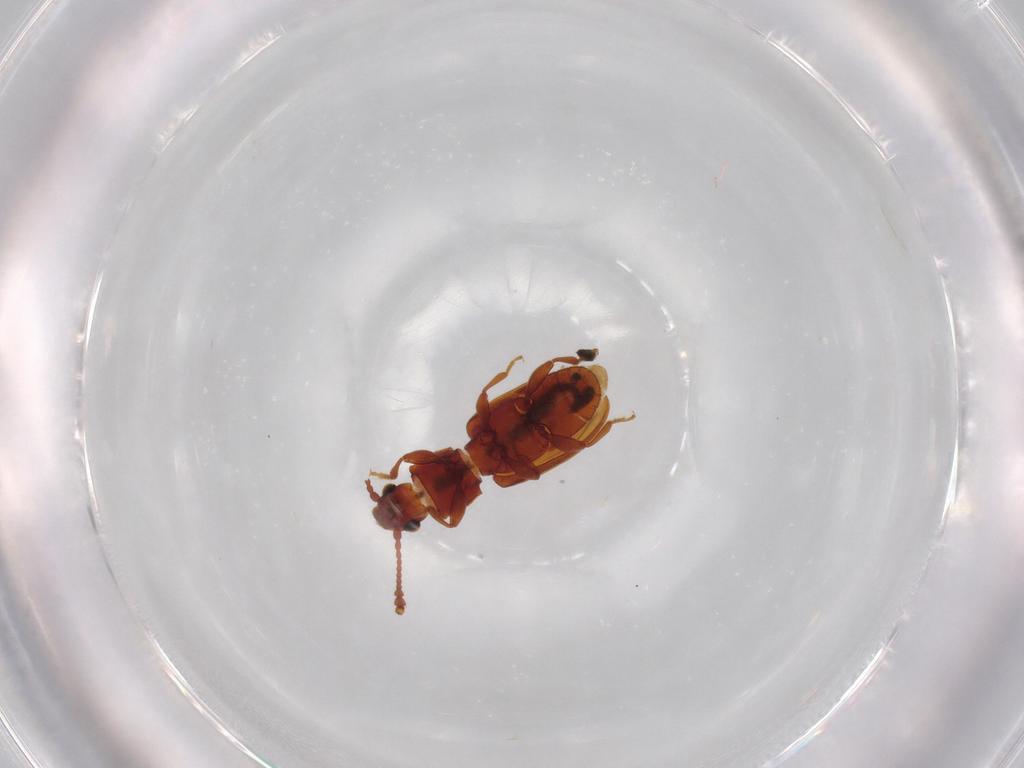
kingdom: Animalia
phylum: Arthropoda
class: Insecta
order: Coleoptera
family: Silvanidae
